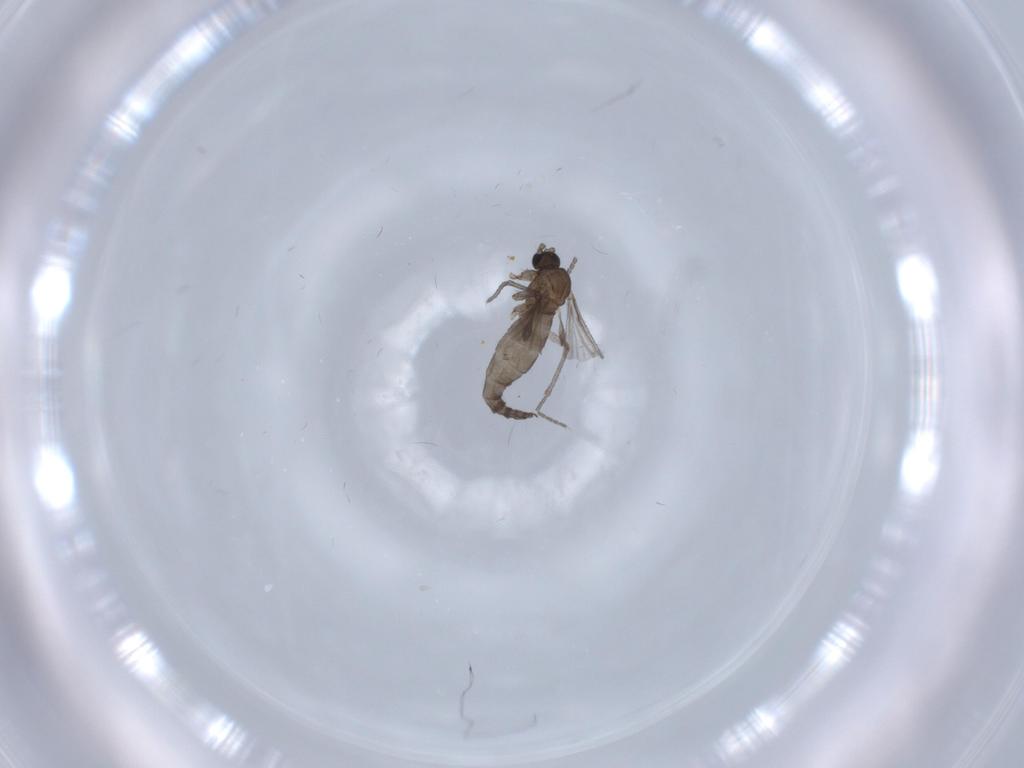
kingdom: Animalia
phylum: Arthropoda
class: Insecta
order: Diptera
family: Sciaridae
